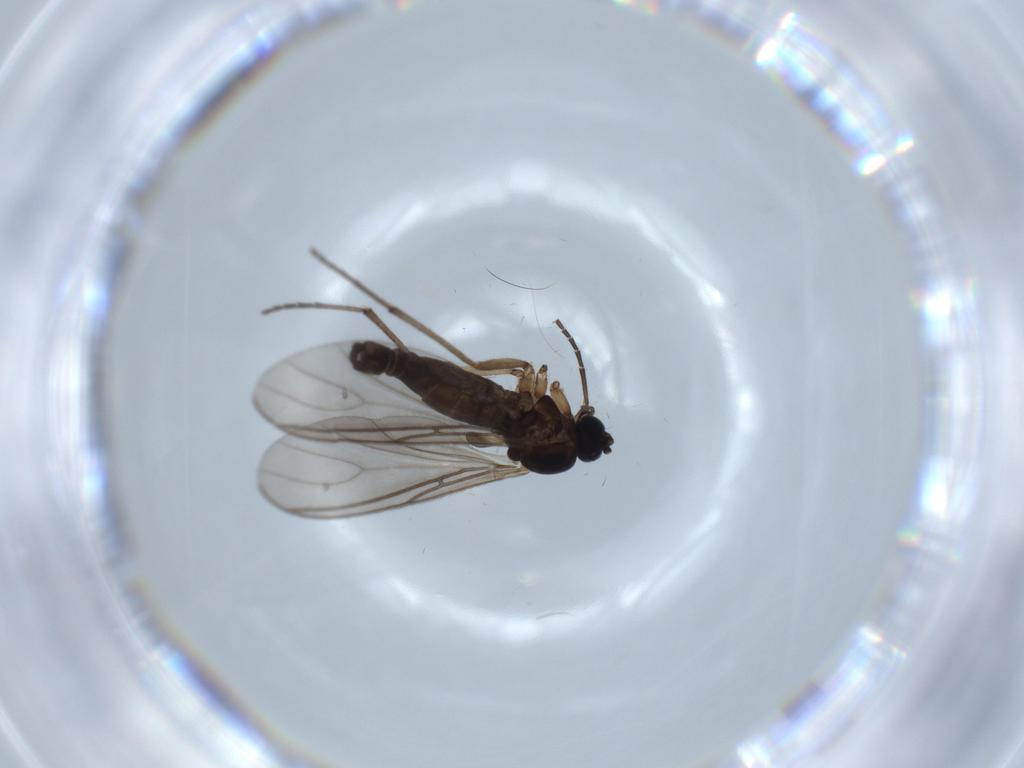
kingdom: Animalia
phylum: Arthropoda
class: Insecta
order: Diptera
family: Sciaridae
